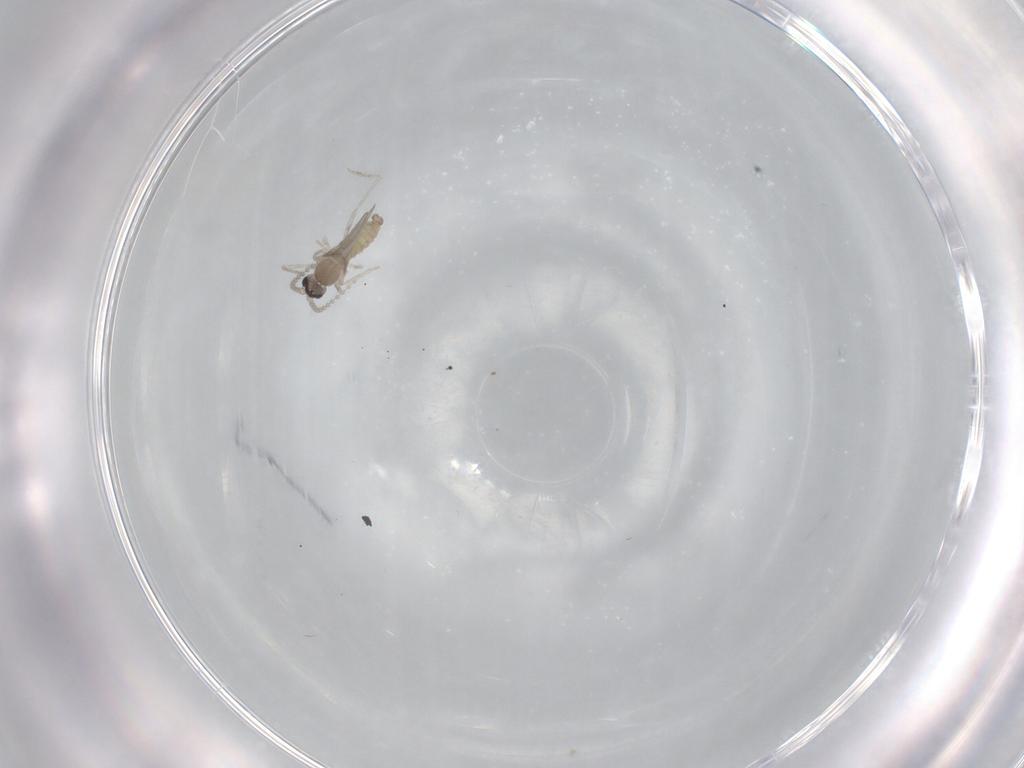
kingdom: Animalia
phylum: Arthropoda
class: Insecta
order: Diptera
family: Cecidomyiidae
